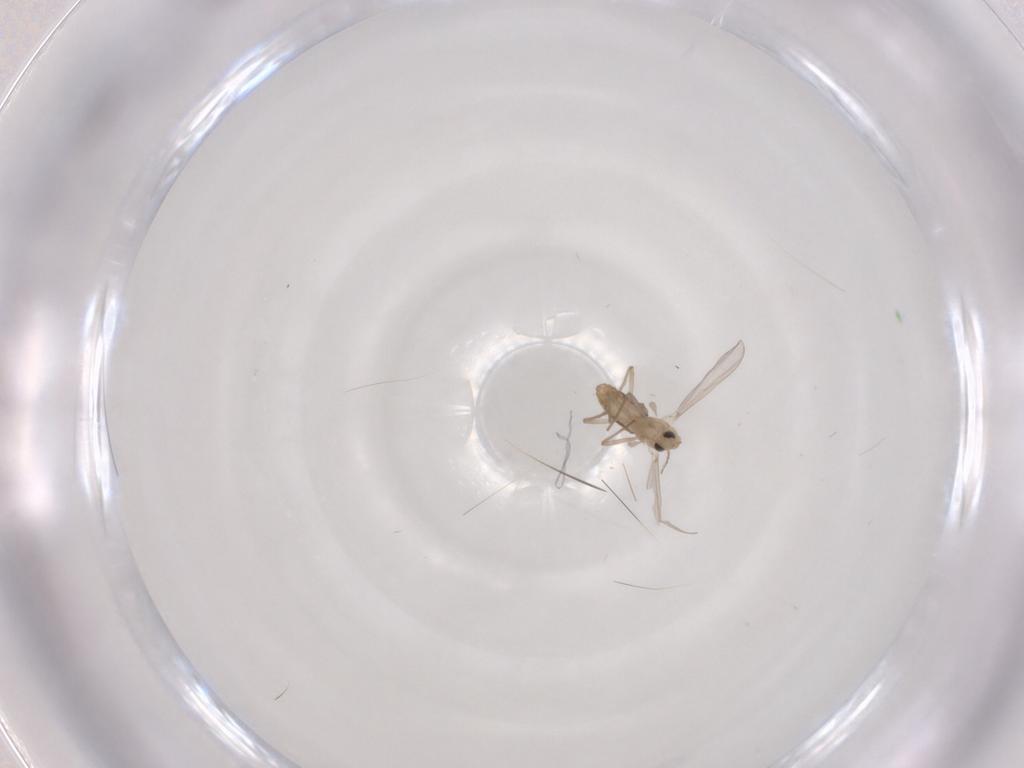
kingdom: Animalia
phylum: Arthropoda
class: Insecta
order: Diptera
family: Chironomidae
